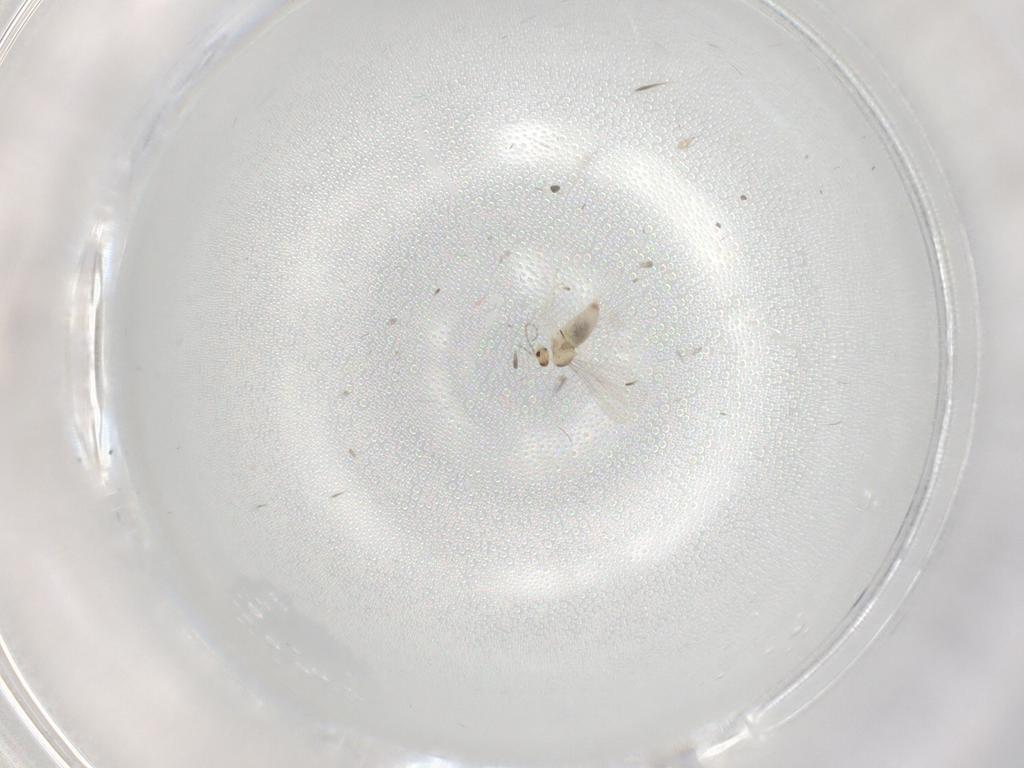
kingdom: Animalia
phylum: Arthropoda
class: Insecta
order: Diptera
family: Cecidomyiidae
